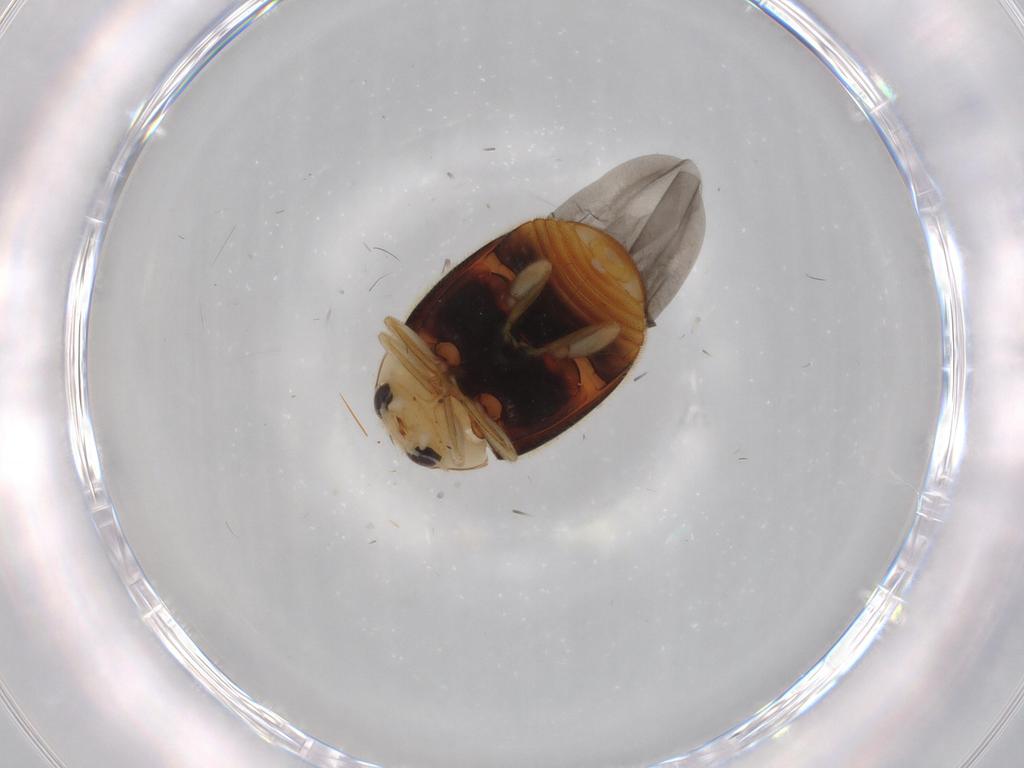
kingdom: Animalia
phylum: Arthropoda
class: Insecta
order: Coleoptera
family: Coccinellidae
